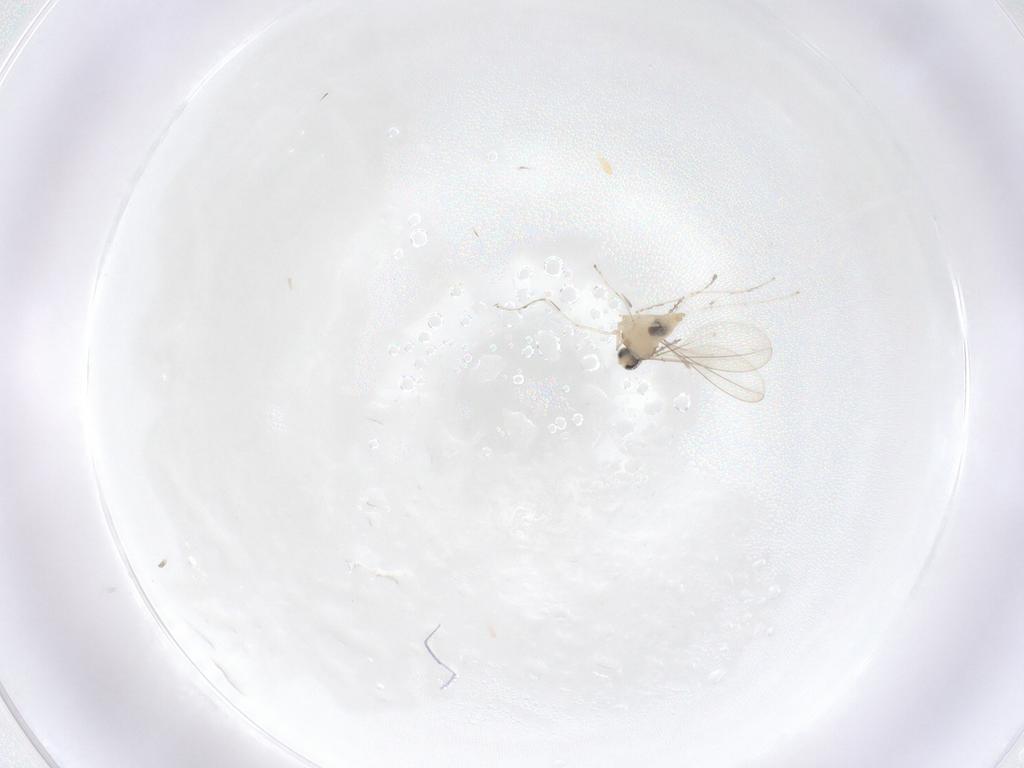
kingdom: Animalia
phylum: Arthropoda
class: Insecta
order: Diptera
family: Cecidomyiidae
